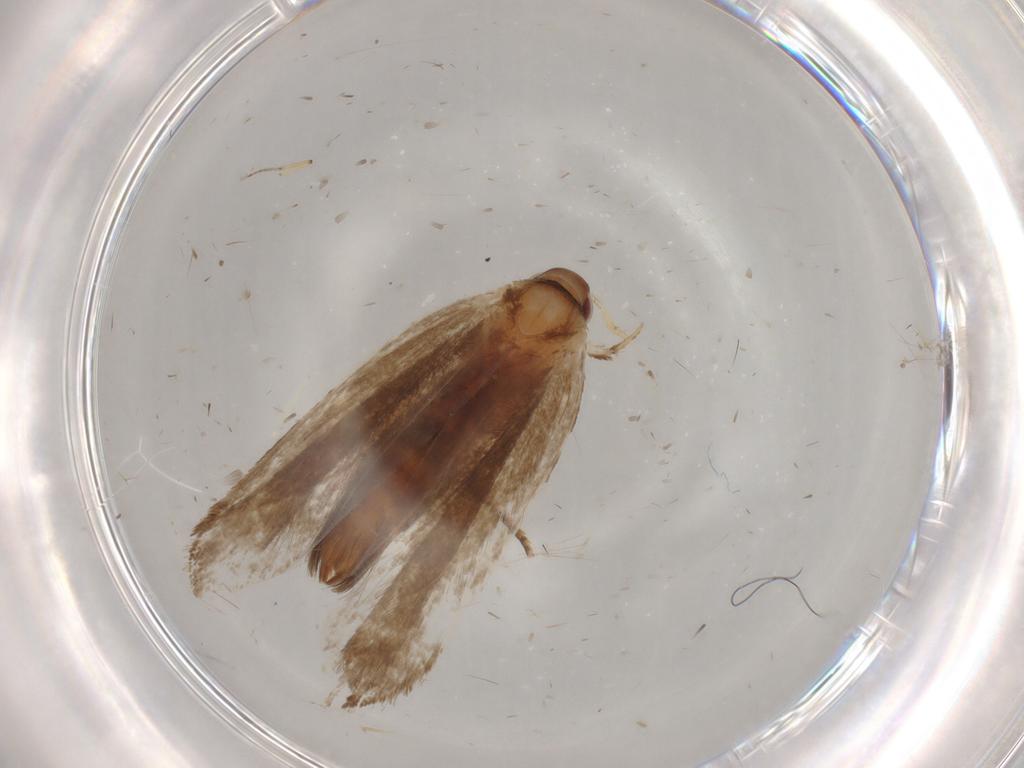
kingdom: Animalia
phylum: Arthropoda
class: Insecta
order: Lepidoptera
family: Gelechiidae
